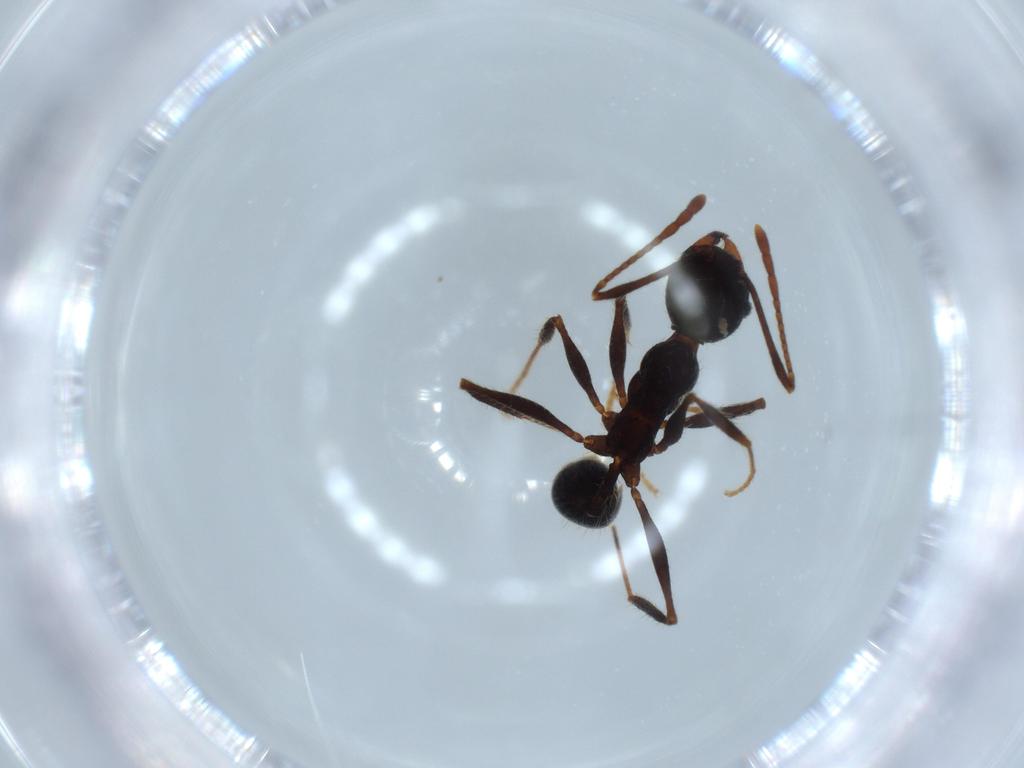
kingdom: Animalia
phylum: Arthropoda
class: Insecta
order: Hymenoptera
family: Formicidae
